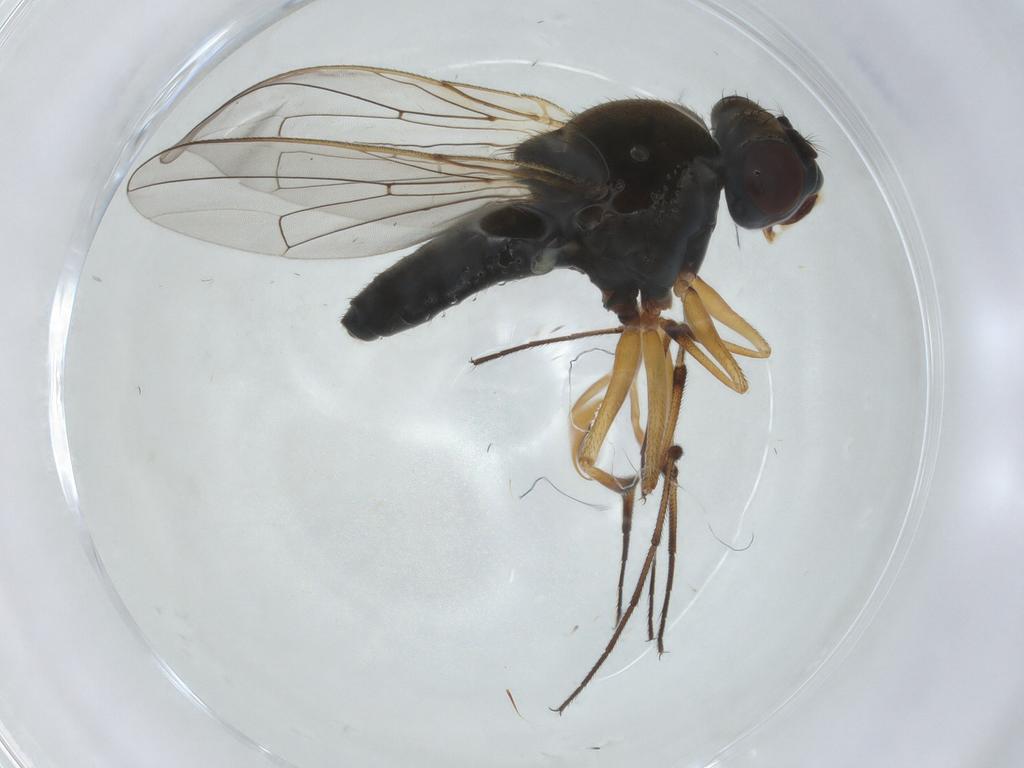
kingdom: Animalia
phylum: Arthropoda
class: Insecta
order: Diptera
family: Ephydridae
